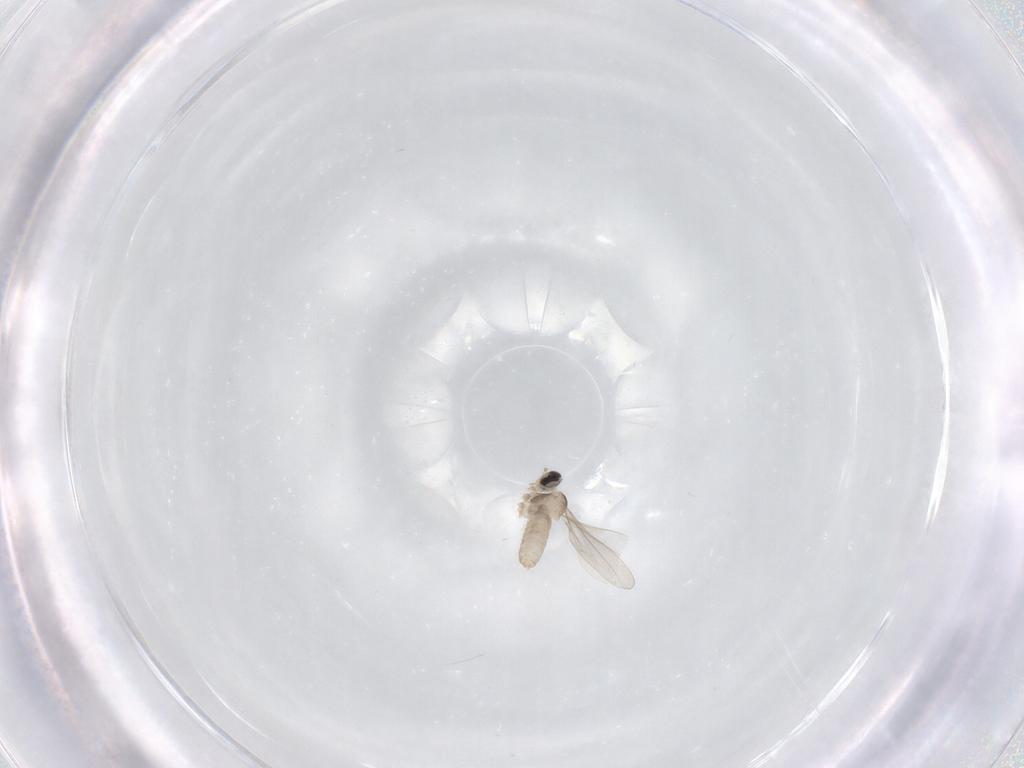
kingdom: Animalia
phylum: Arthropoda
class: Insecta
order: Diptera
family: Cecidomyiidae
